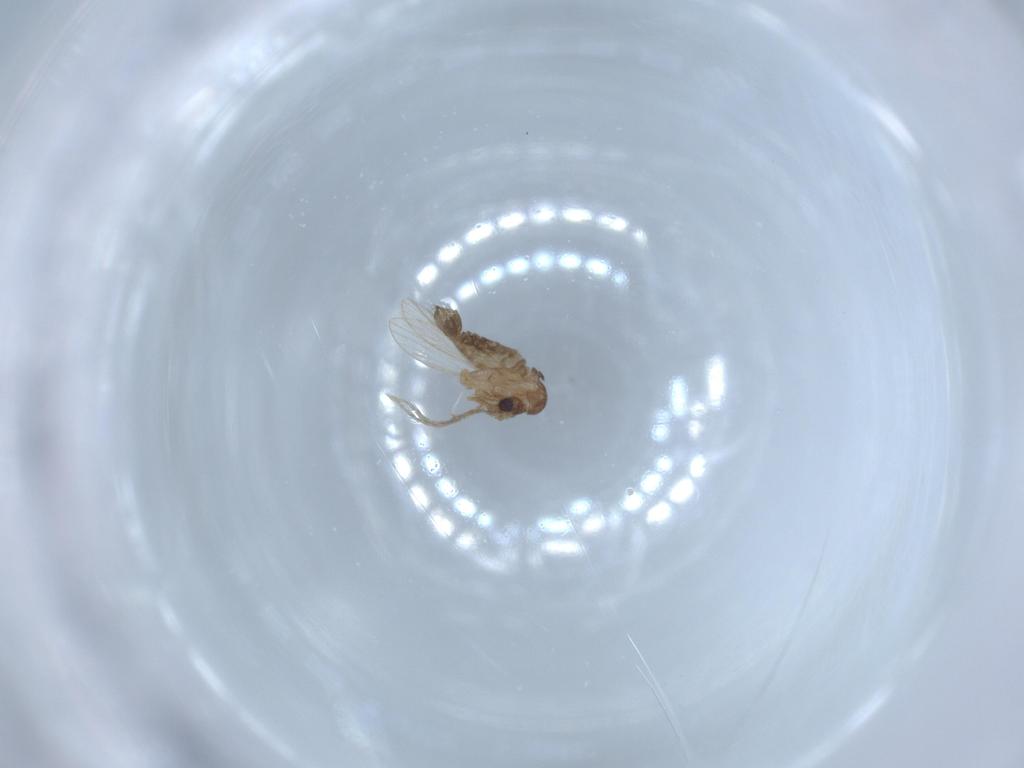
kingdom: Animalia
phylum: Arthropoda
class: Insecta
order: Diptera
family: Psychodidae
